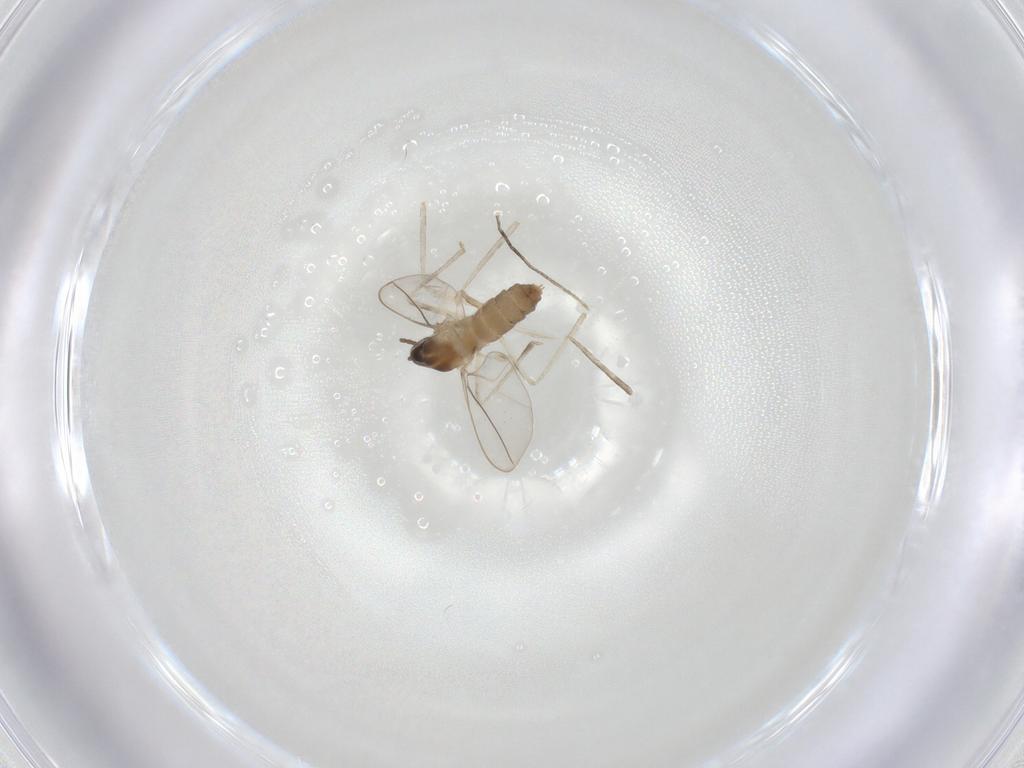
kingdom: Animalia
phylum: Arthropoda
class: Insecta
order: Diptera
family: Cecidomyiidae
